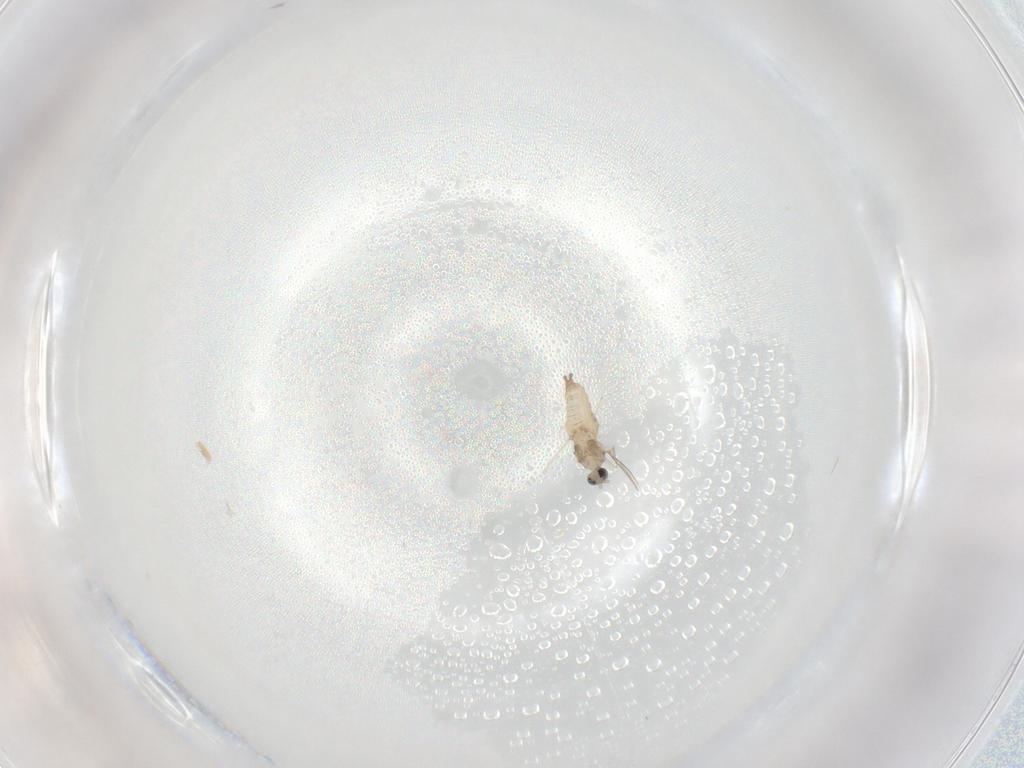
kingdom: Animalia
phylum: Arthropoda
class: Insecta
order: Diptera
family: Cecidomyiidae
